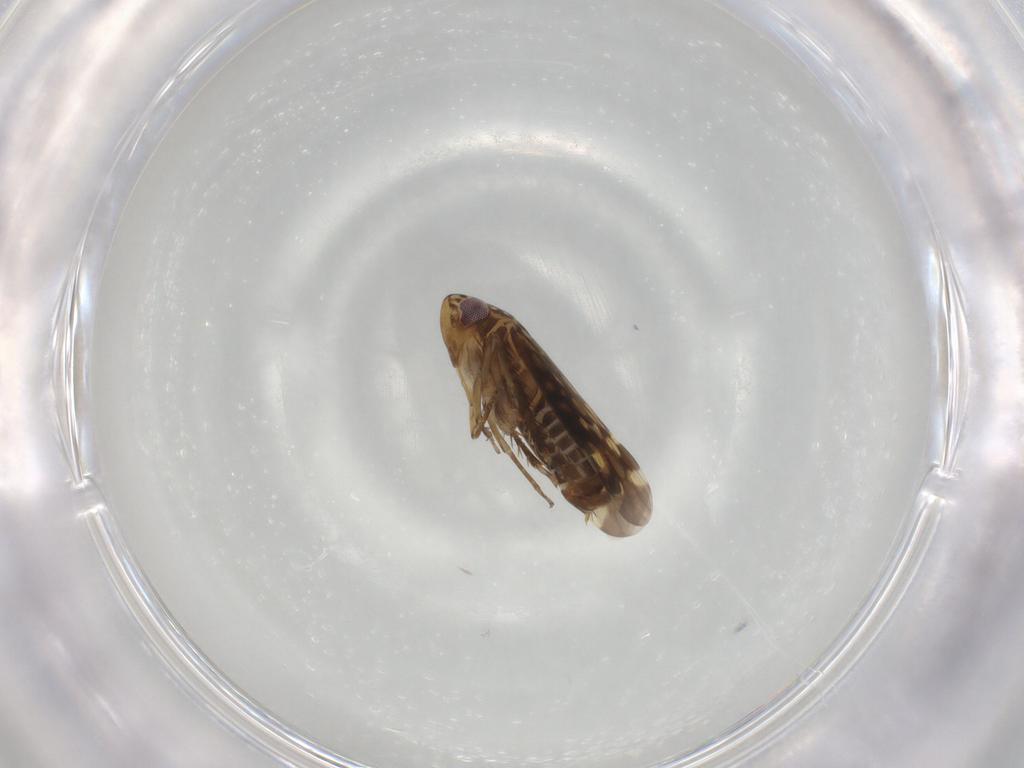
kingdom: Animalia
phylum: Arthropoda
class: Insecta
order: Hemiptera
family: Cicadellidae
